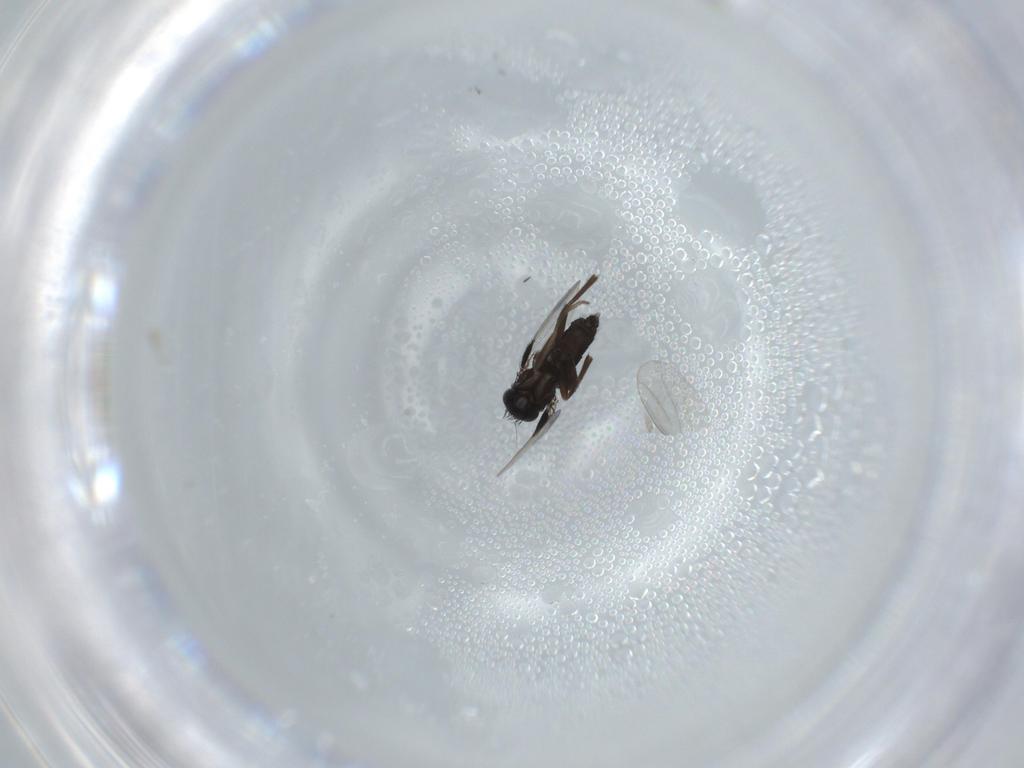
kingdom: Animalia
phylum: Arthropoda
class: Insecta
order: Diptera
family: Phoridae
